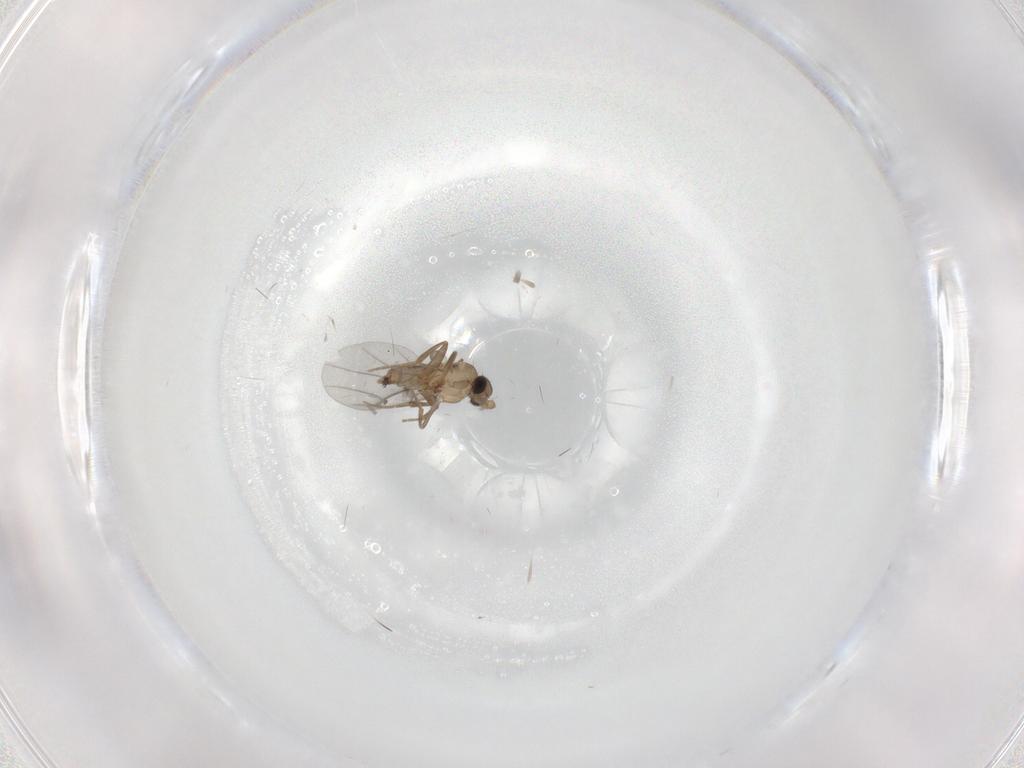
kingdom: Animalia
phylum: Arthropoda
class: Insecta
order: Diptera
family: Cecidomyiidae
